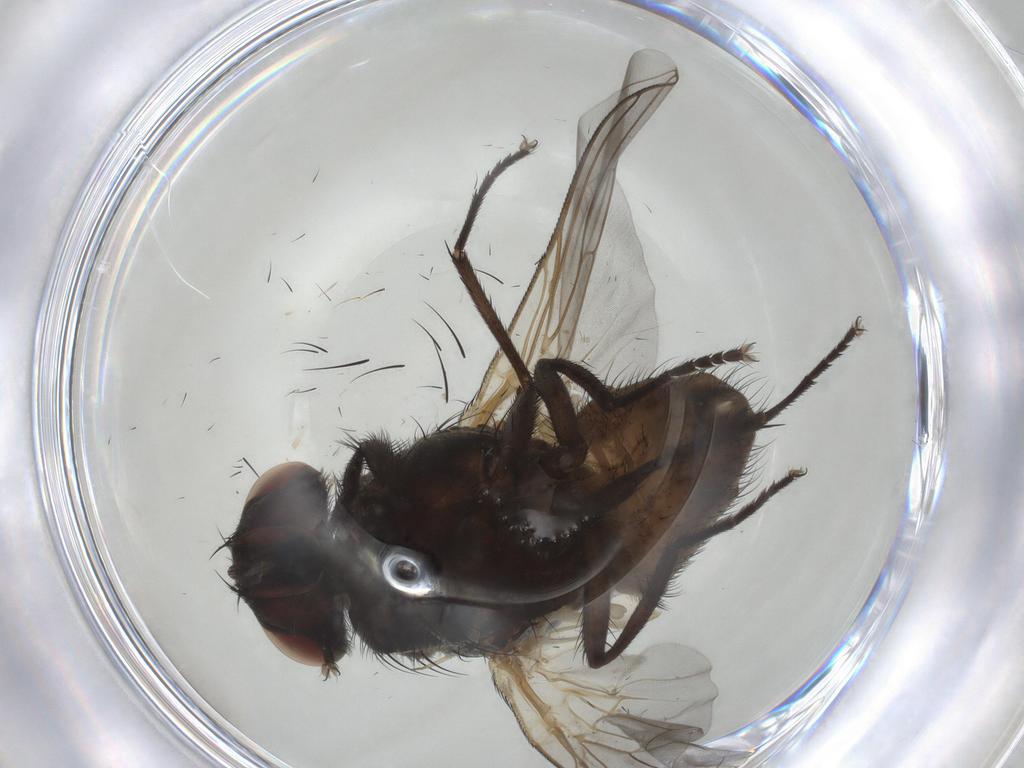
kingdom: Animalia
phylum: Arthropoda
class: Insecta
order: Diptera
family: Muscidae
